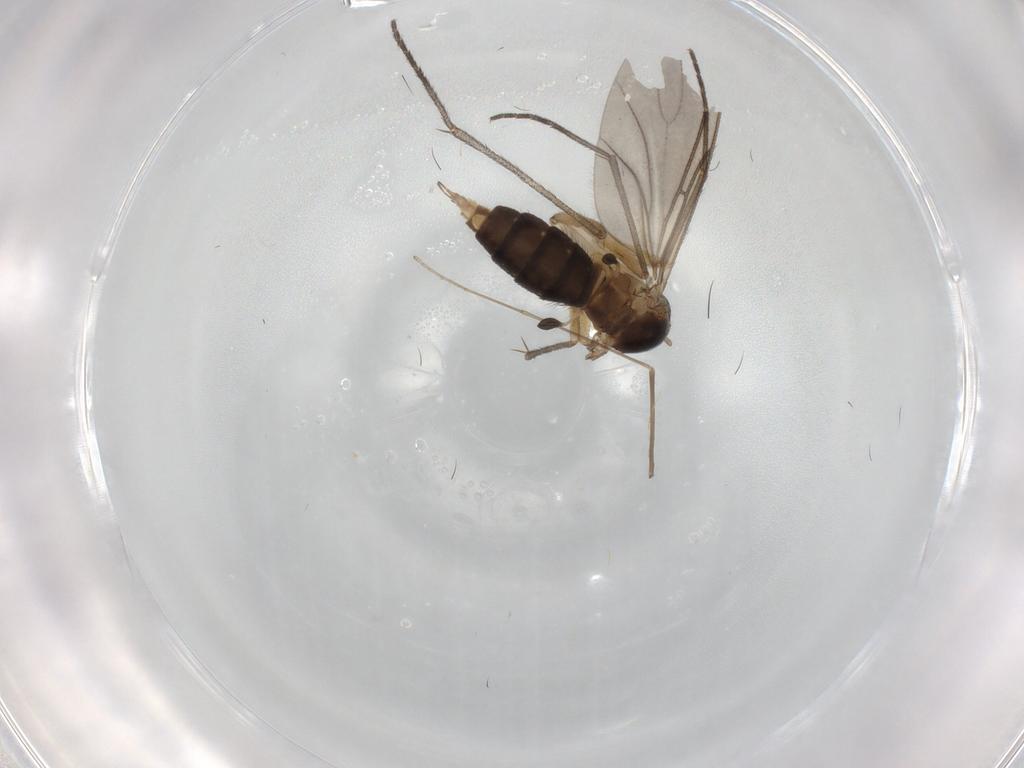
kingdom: Animalia
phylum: Arthropoda
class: Insecta
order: Diptera
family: Sciaridae
